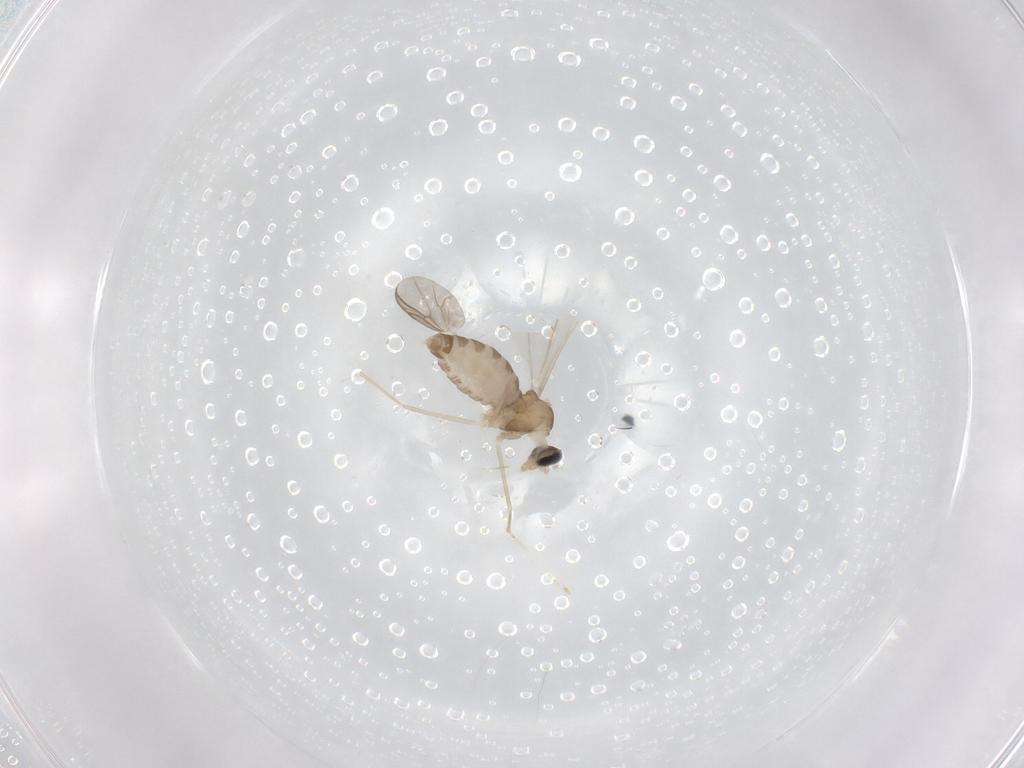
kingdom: Animalia
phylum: Arthropoda
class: Insecta
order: Diptera
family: Cecidomyiidae
